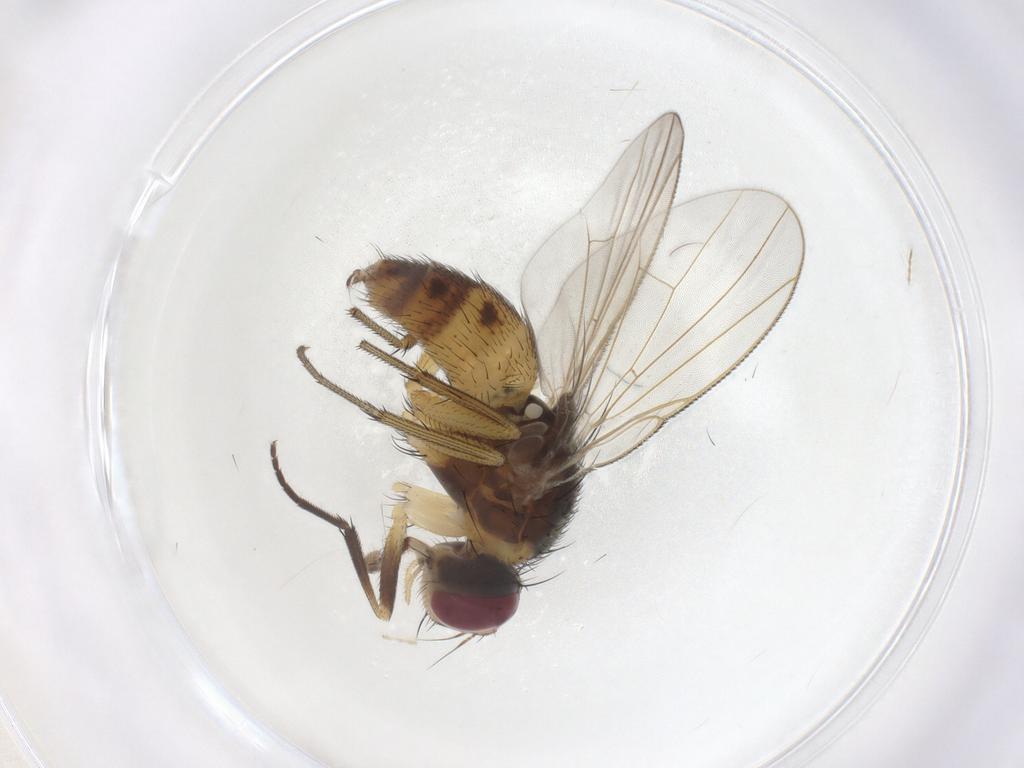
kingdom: Animalia
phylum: Arthropoda
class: Insecta
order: Diptera
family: Muscidae
